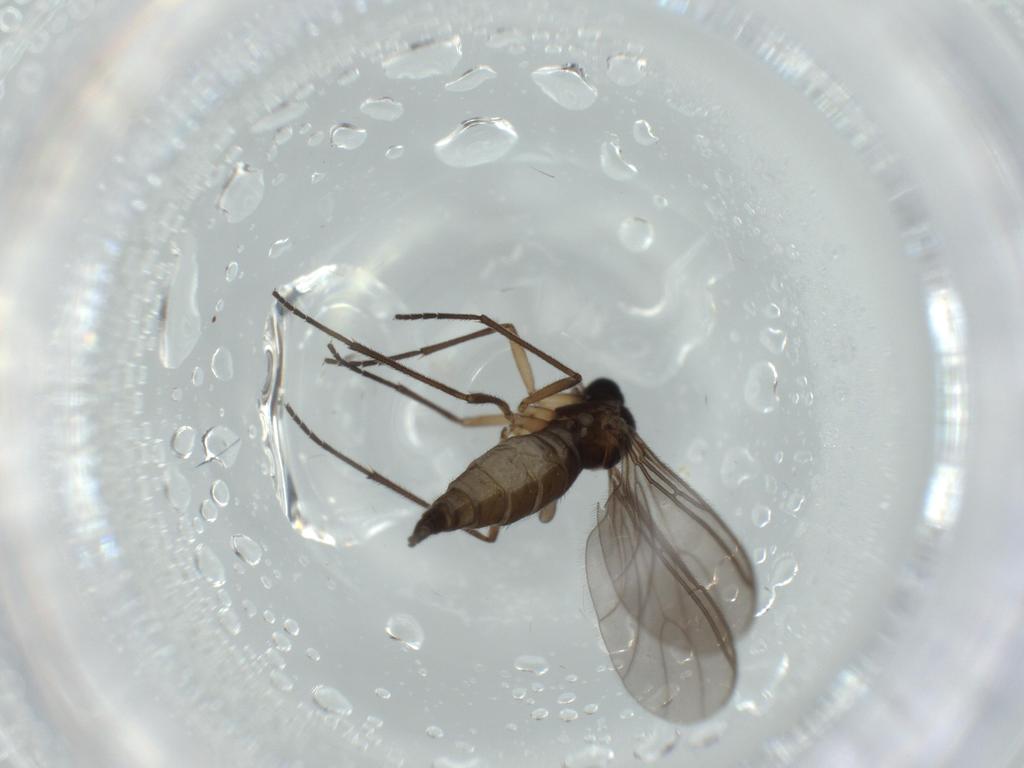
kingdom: Animalia
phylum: Arthropoda
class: Insecta
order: Diptera
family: Sciaridae
